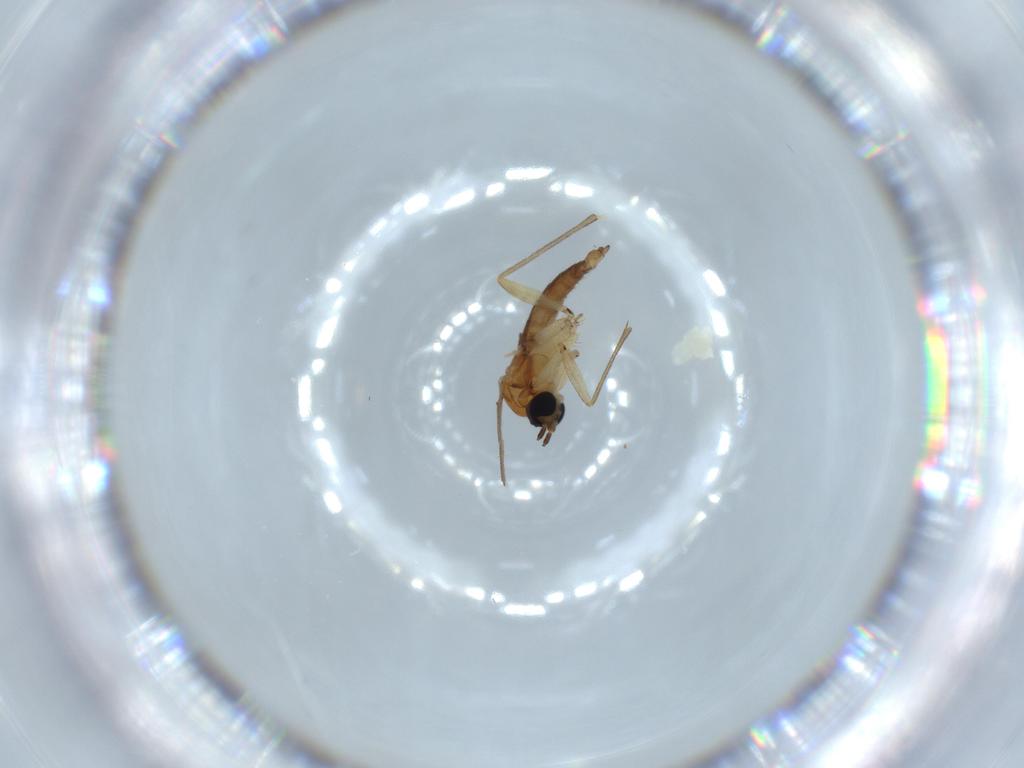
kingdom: Animalia
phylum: Arthropoda
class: Insecta
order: Diptera
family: Sciaridae
